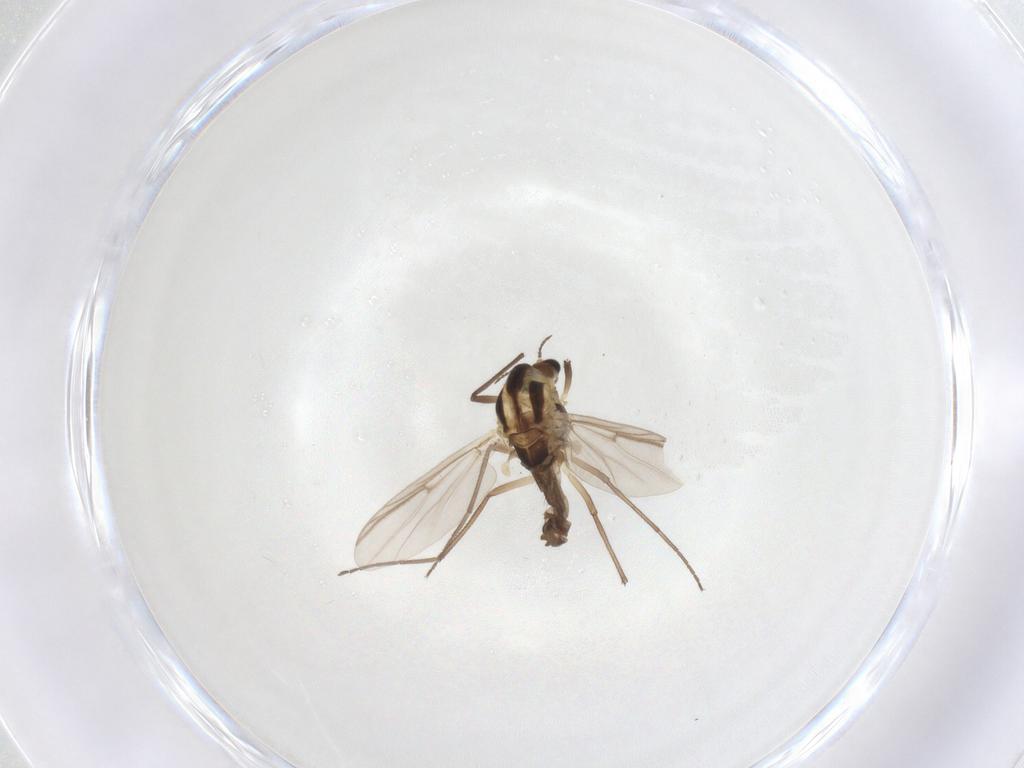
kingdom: Animalia
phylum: Arthropoda
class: Insecta
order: Diptera
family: Chironomidae
